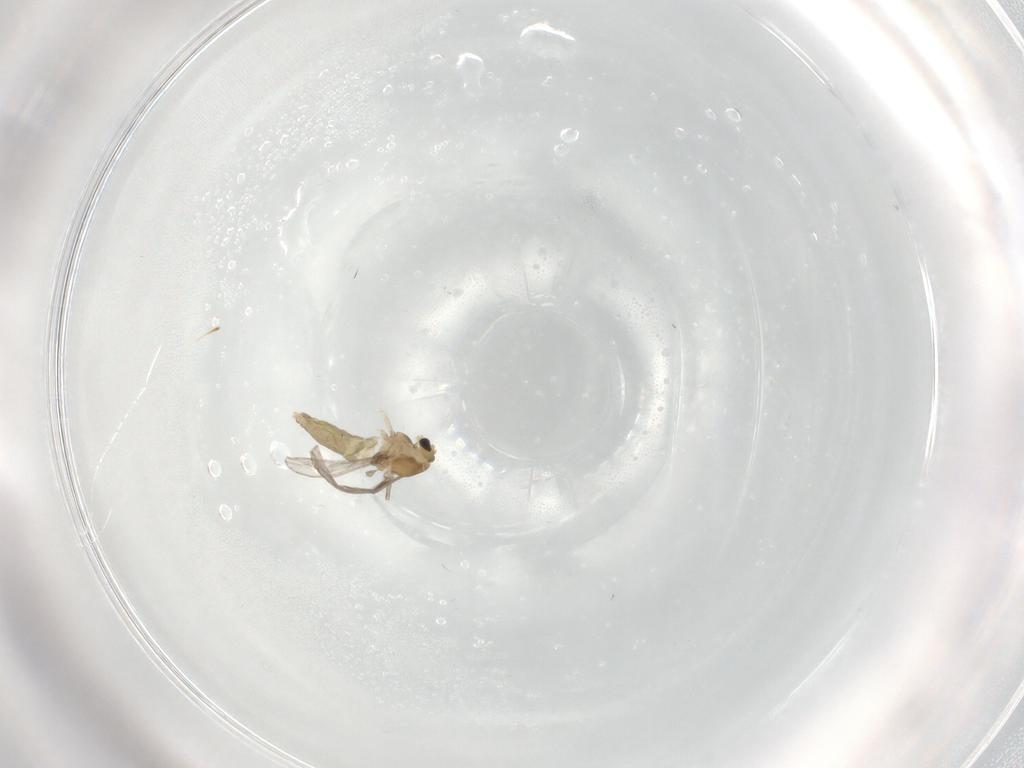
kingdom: Animalia
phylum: Arthropoda
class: Insecta
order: Diptera
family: Chironomidae
